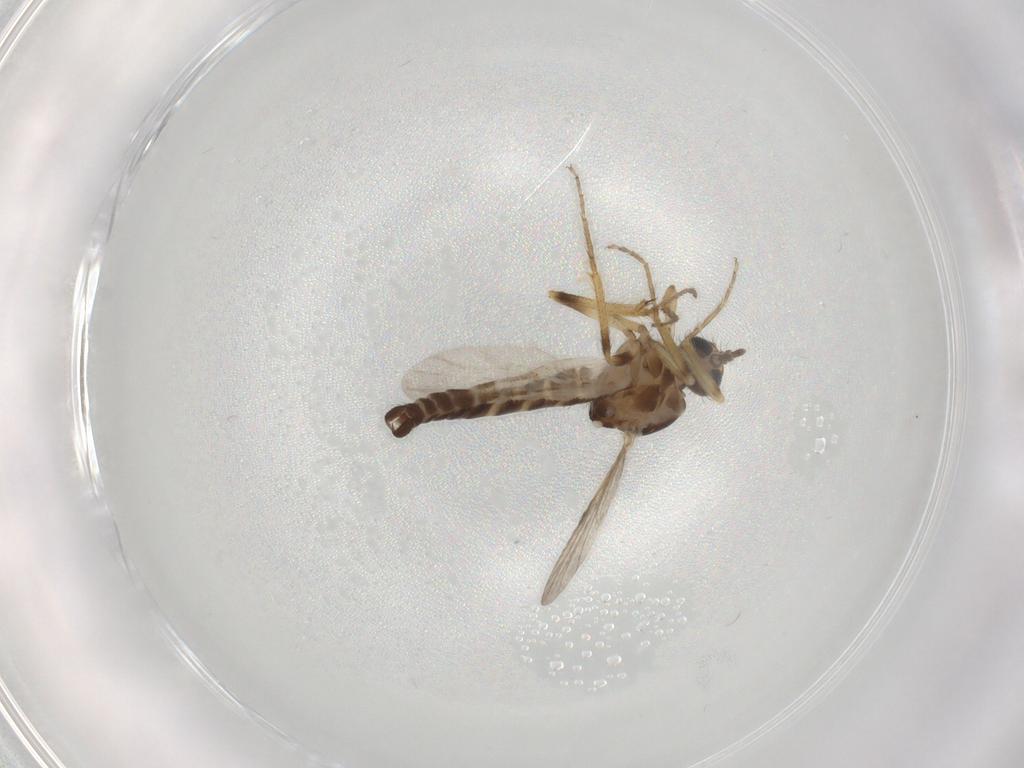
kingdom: Animalia
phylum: Arthropoda
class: Insecta
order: Diptera
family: Ceratopogonidae
